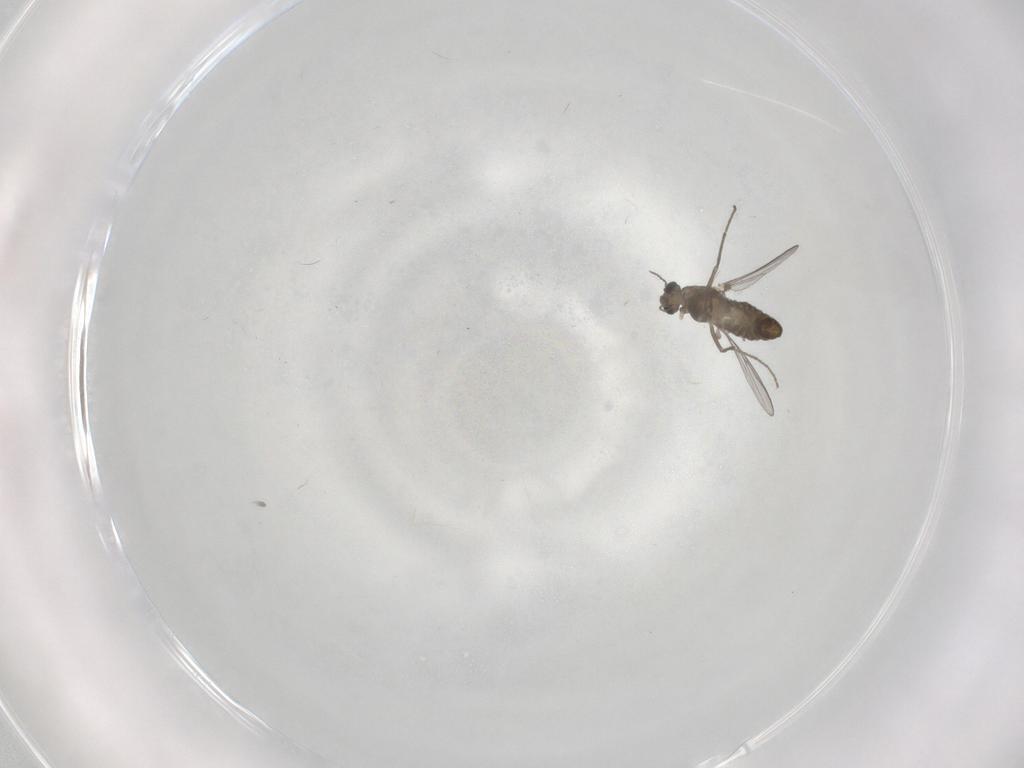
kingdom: Animalia
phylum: Arthropoda
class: Insecta
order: Diptera
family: Chironomidae
